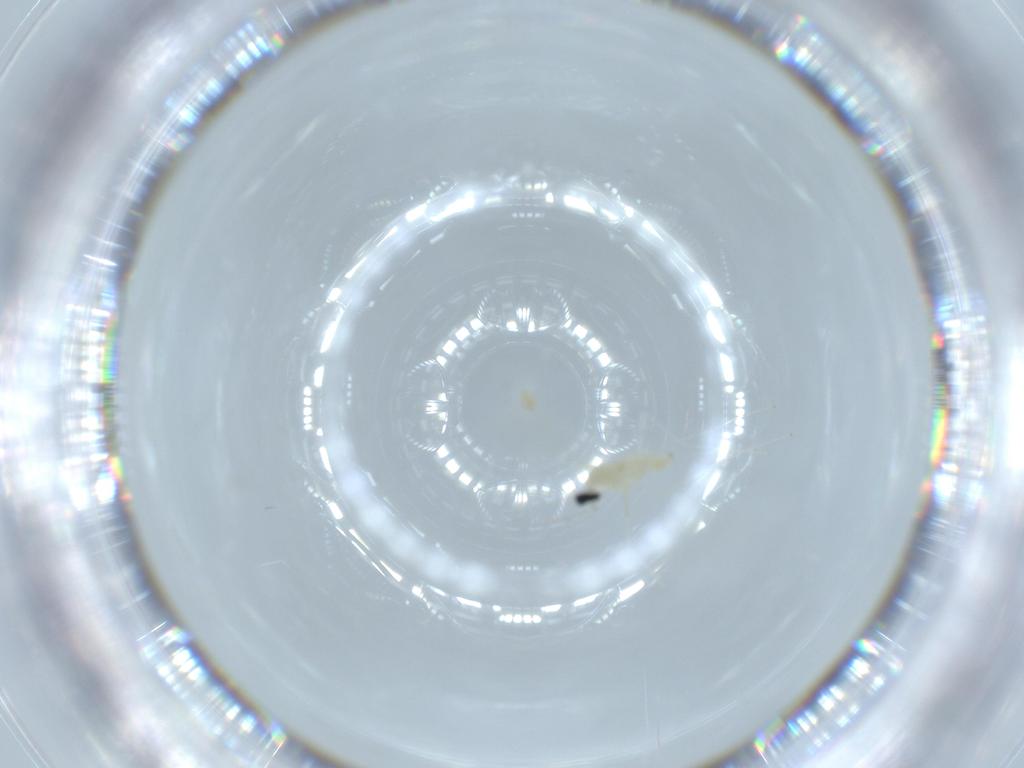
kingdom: Animalia
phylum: Arthropoda
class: Insecta
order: Diptera
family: Cecidomyiidae
